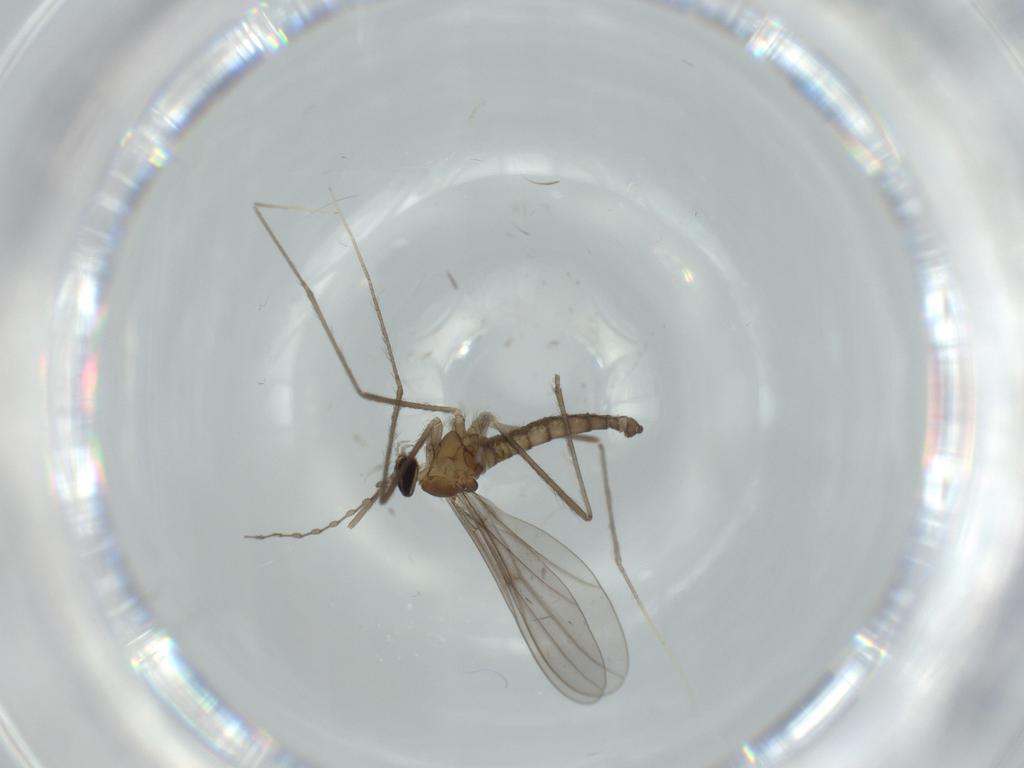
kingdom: Animalia
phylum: Arthropoda
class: Insecta
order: Diptera
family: Cecidomyiidae
